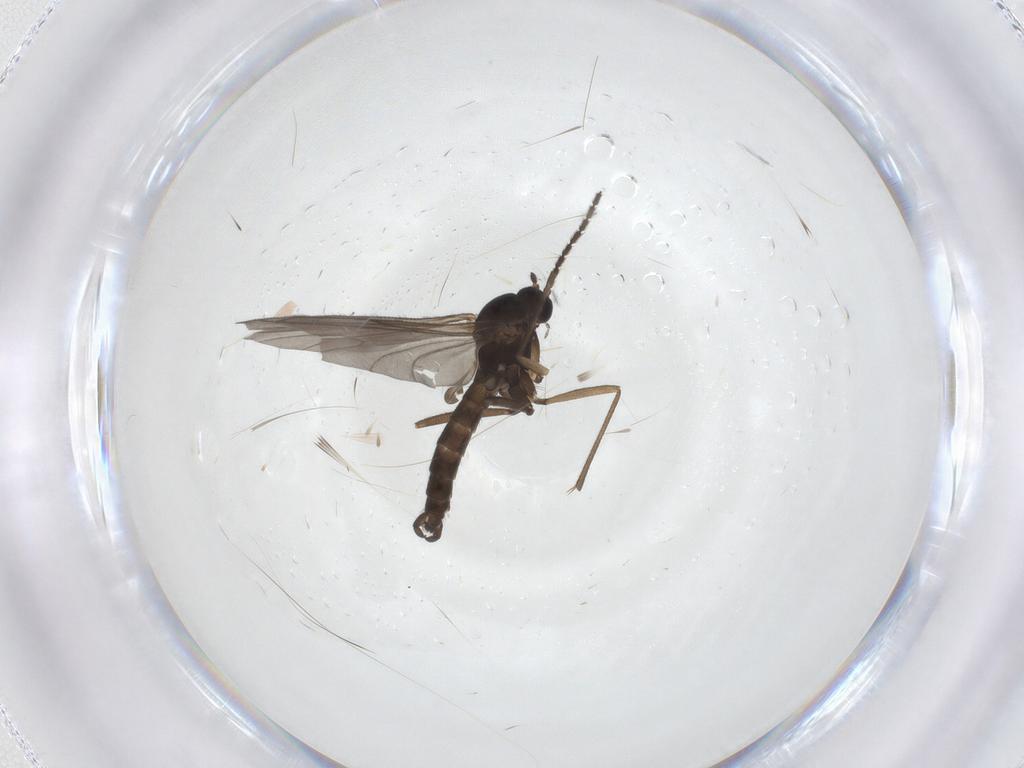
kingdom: Animalia
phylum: Arthropoda
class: Insecta
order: Diptera
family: Sciaridae
